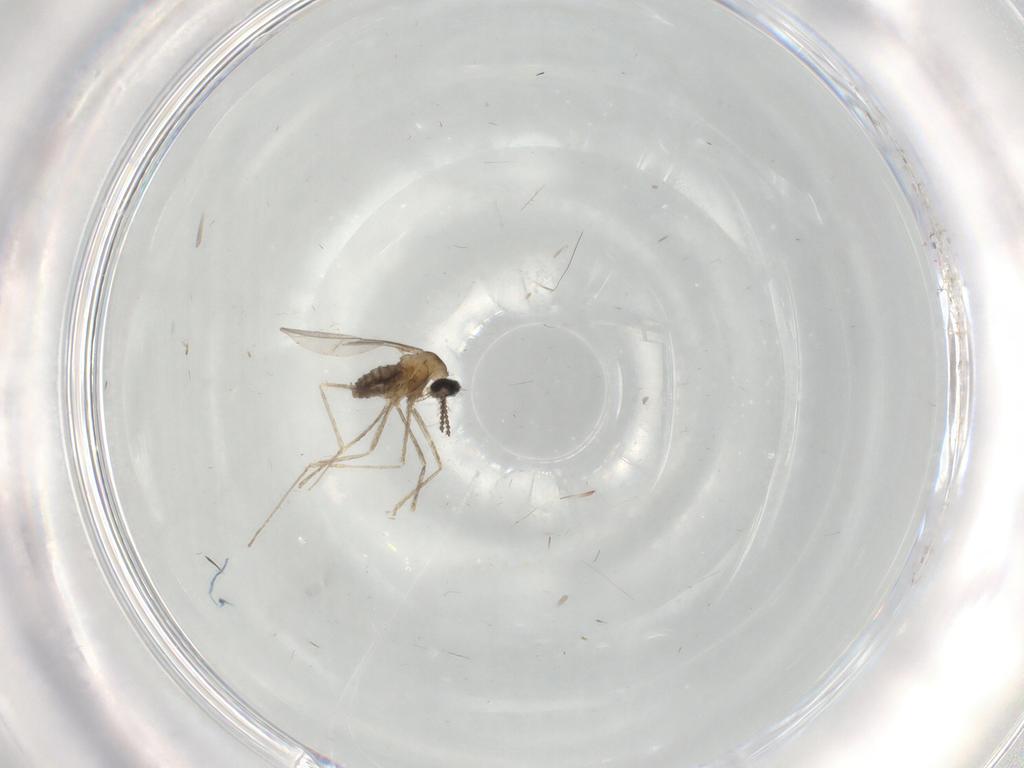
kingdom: Animalia
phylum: Arthropoda
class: Insecta
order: Diptera
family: Cecidomyiidae
